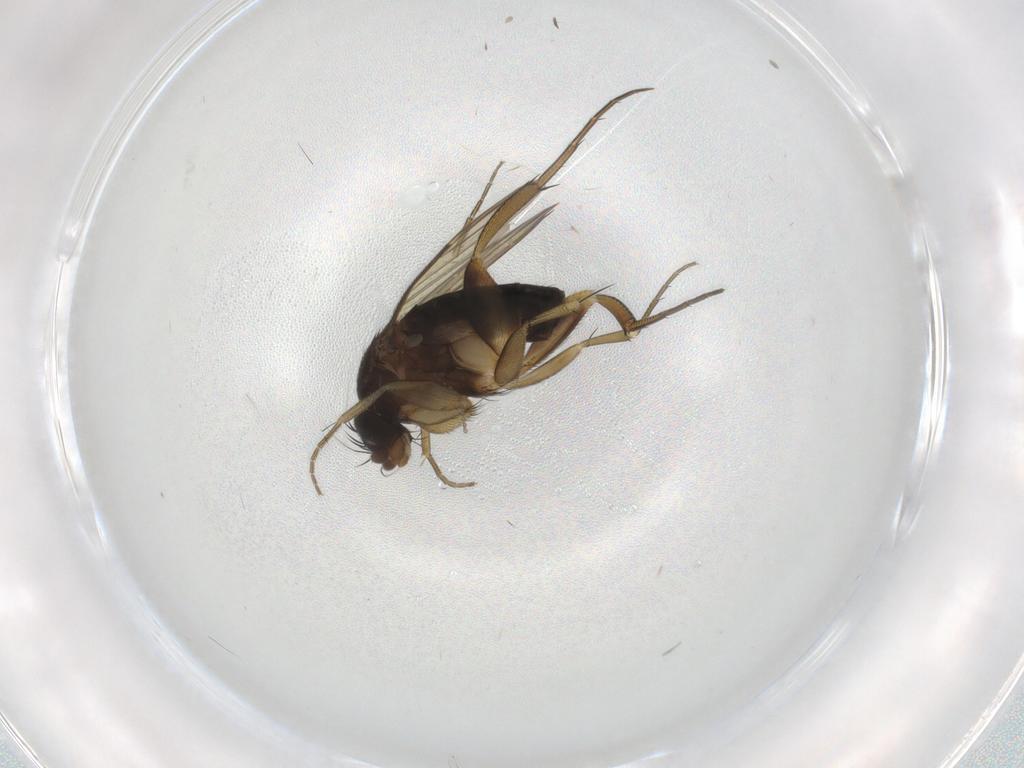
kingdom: Animalia
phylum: Arthropoda
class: Insecta
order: Diptera
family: Phoridae
